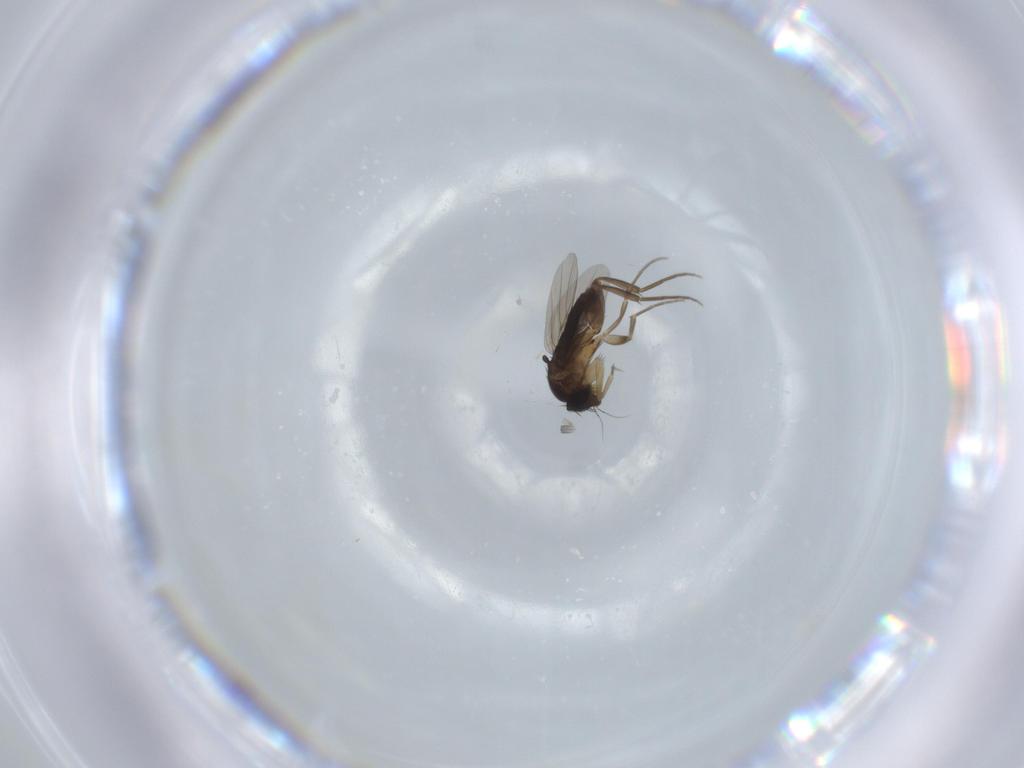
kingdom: Animalia
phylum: Arthropoda
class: Insecta
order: Diptera
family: Phoridae
